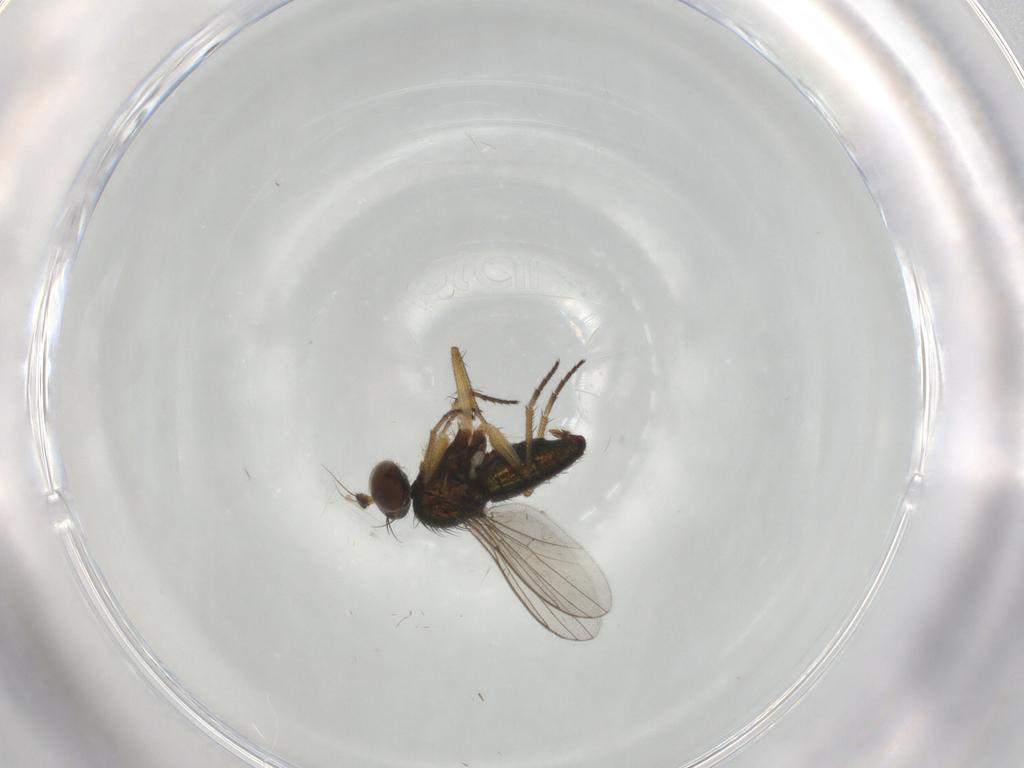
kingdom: Animalia
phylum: Arthropoda
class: Insecta
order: Diptera
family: Dolichopodidae
